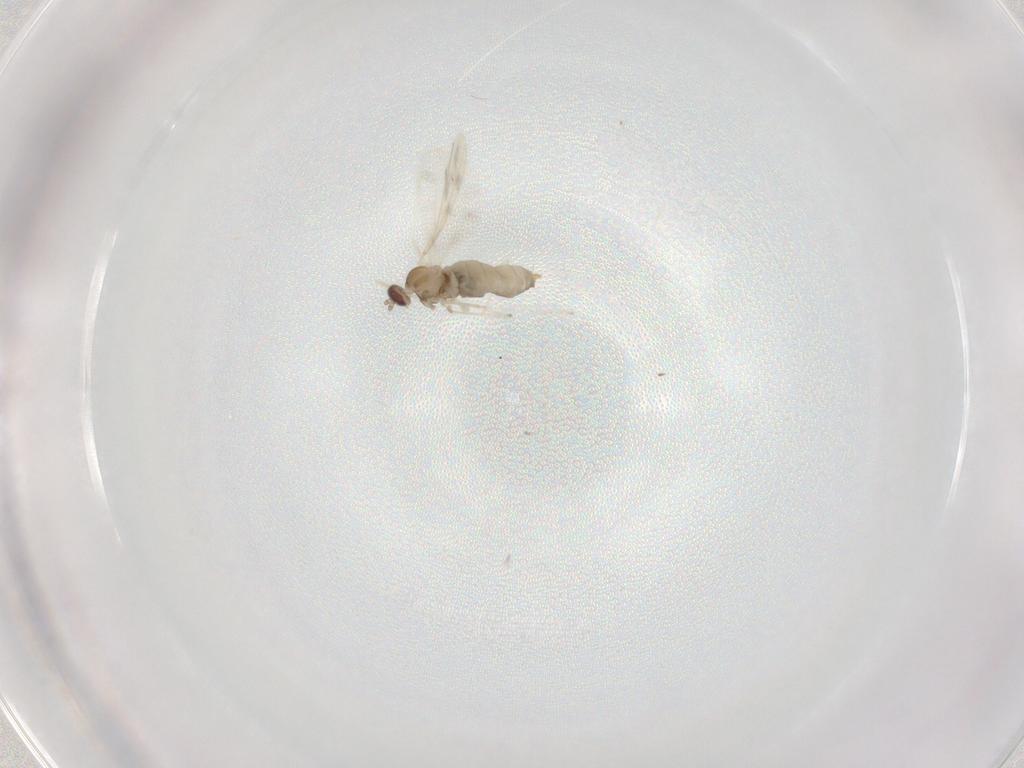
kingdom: Animalia
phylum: Arthropoda
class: Insecta
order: Diptera
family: Cecidomyiidae
